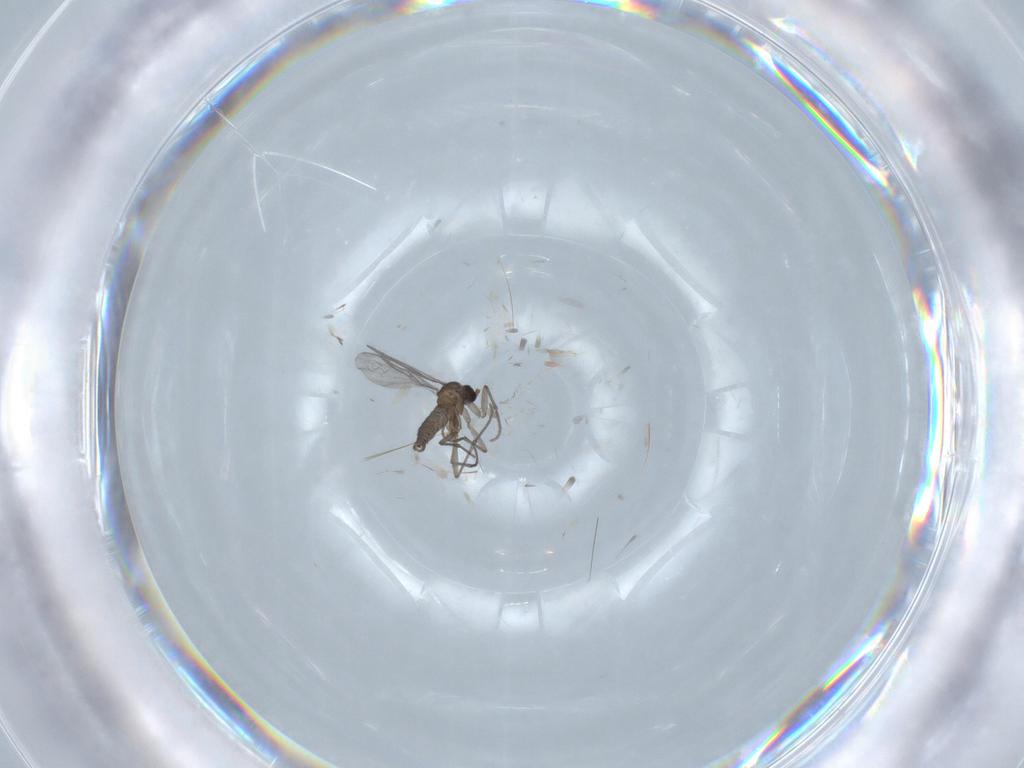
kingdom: Animalia
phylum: Arthropoda
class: Insecta
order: Diptera
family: Sciaridae
